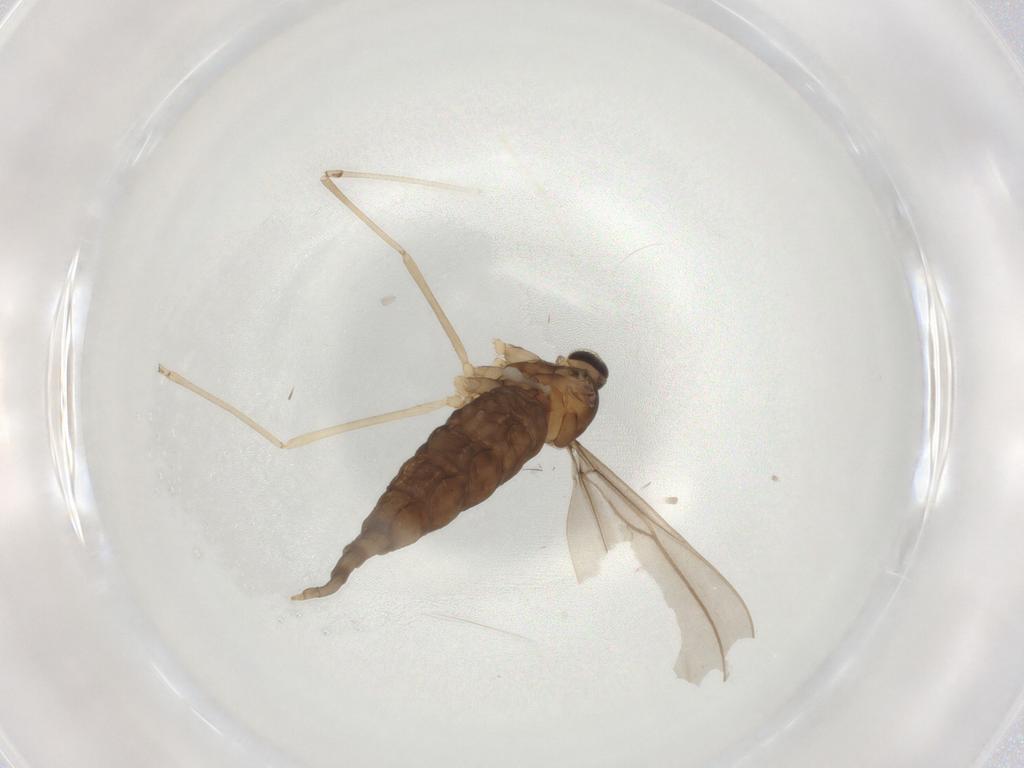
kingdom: Animalia
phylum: Arthropoda
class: Insecta
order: Diptera
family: Cecidomyiidae
